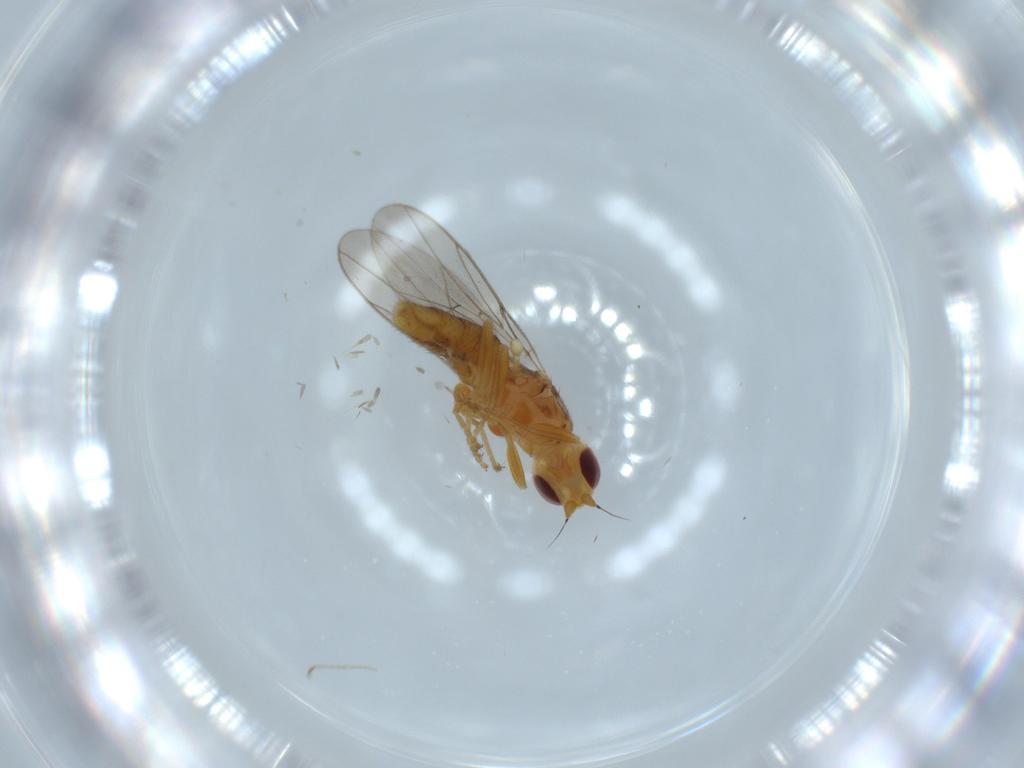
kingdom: Animalia
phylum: Arthropoda
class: Insecta
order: Diptera
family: Chloropidae
